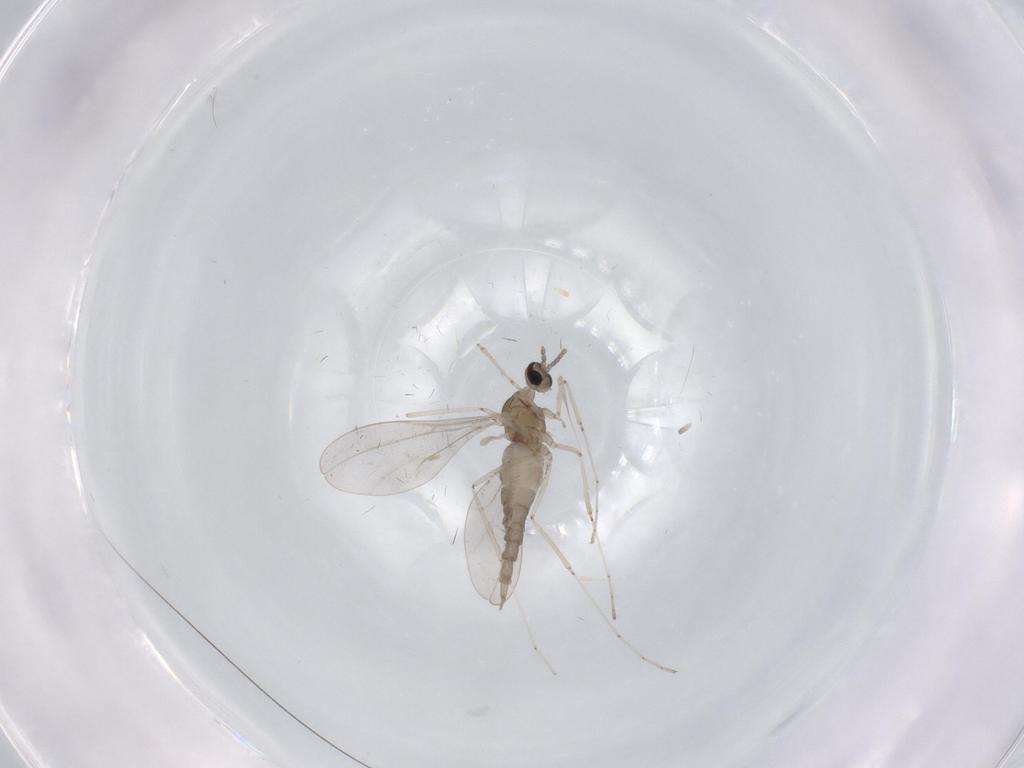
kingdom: Animalia
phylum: Arthropoda
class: Insecta
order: Diptera
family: Cecidomyiidae
